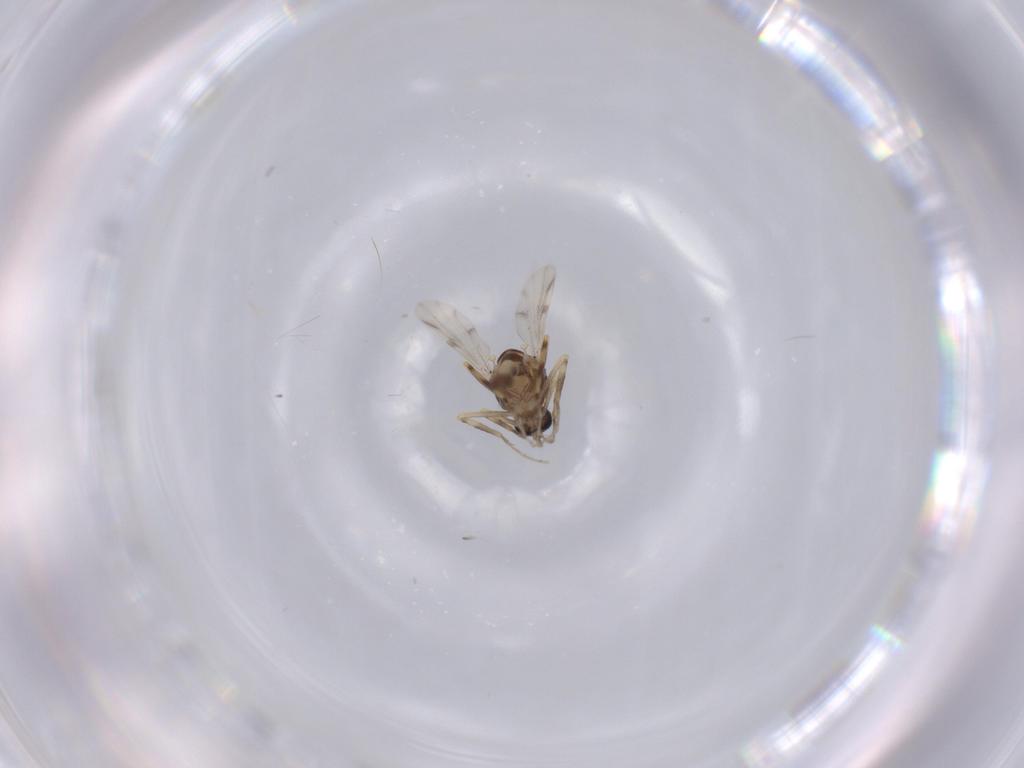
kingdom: Animalia
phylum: Arthropoda
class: Insecta
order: Diptera
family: Ceratopogonidae
